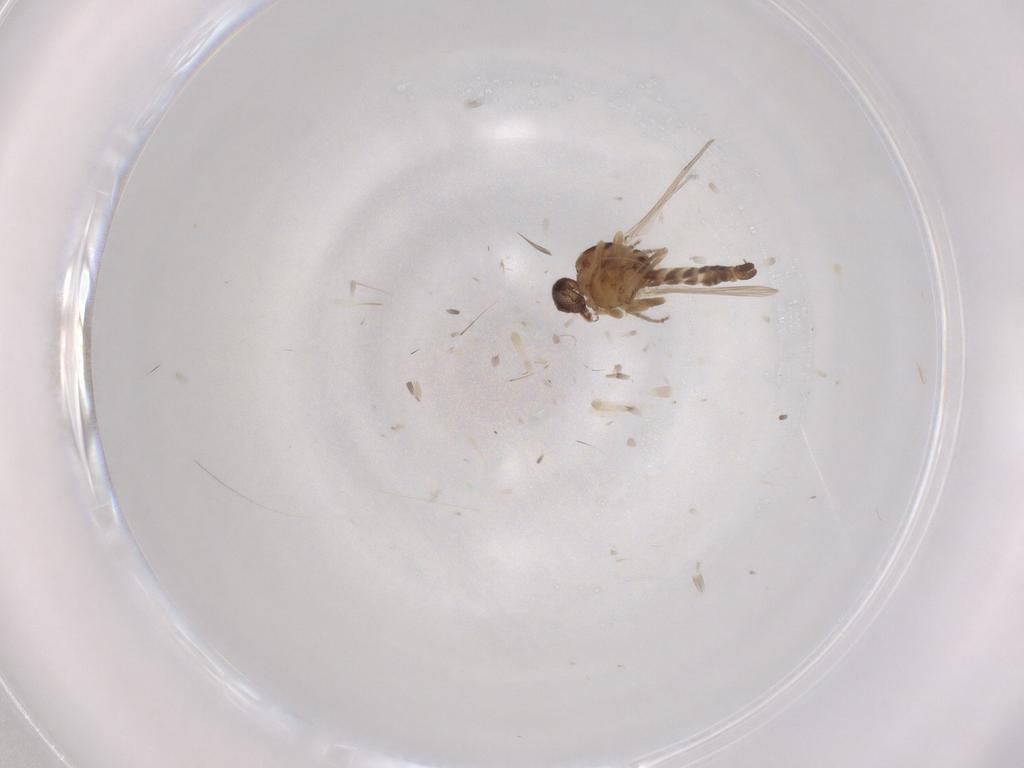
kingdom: Animalia
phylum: Arthropoda
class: Insecta
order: Diptera
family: Ceratopogonidae
